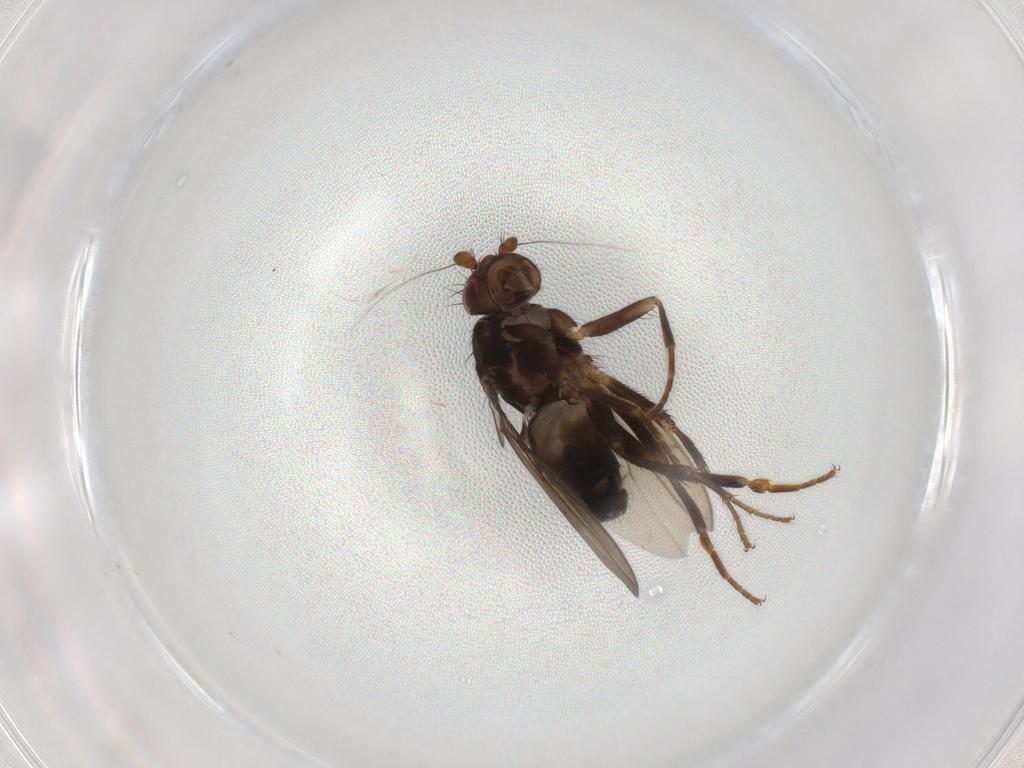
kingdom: Animalia
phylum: Arthropoda
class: Insecta
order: Diptera
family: Sphaeroceridae
